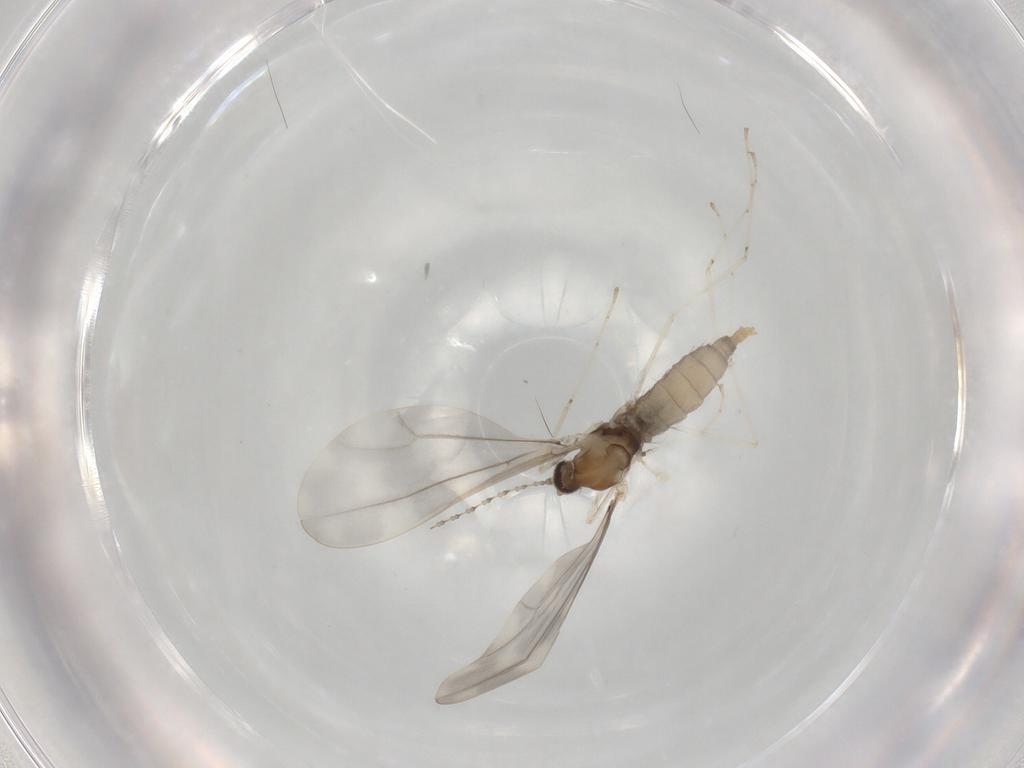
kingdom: Animalia
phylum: Arthropoda
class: Insecta
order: Diptera
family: Cecidomyiidae
